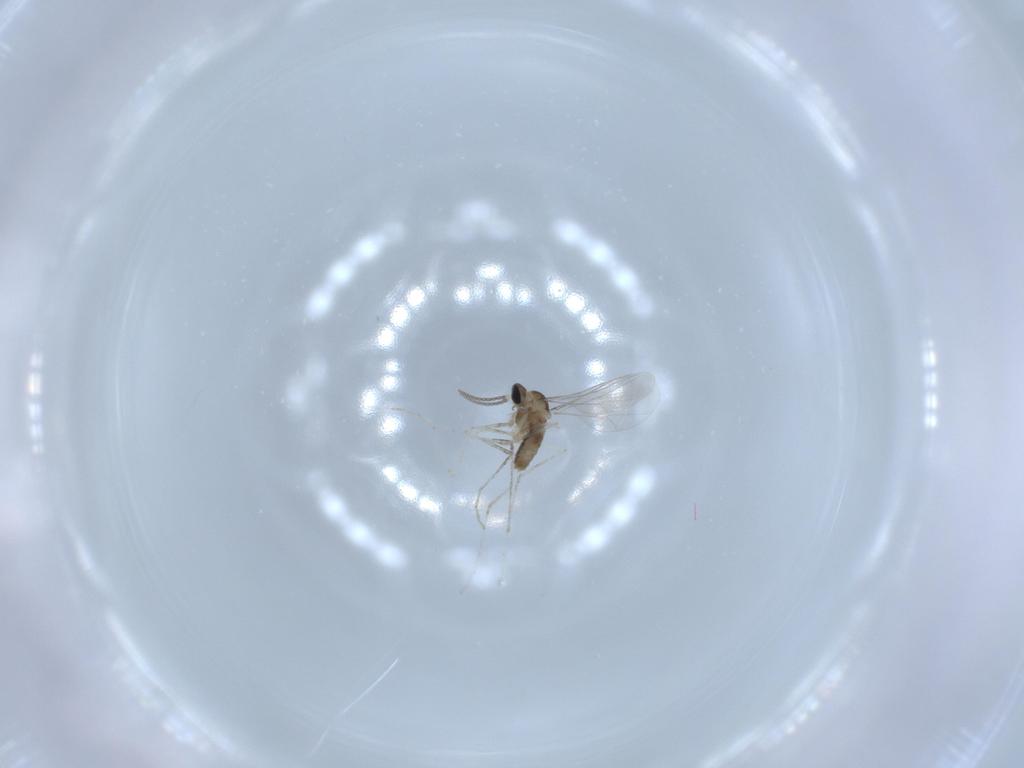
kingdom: Animalia
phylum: Arthropoda
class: Insecta
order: Diptera
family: Cecidomyiidae
